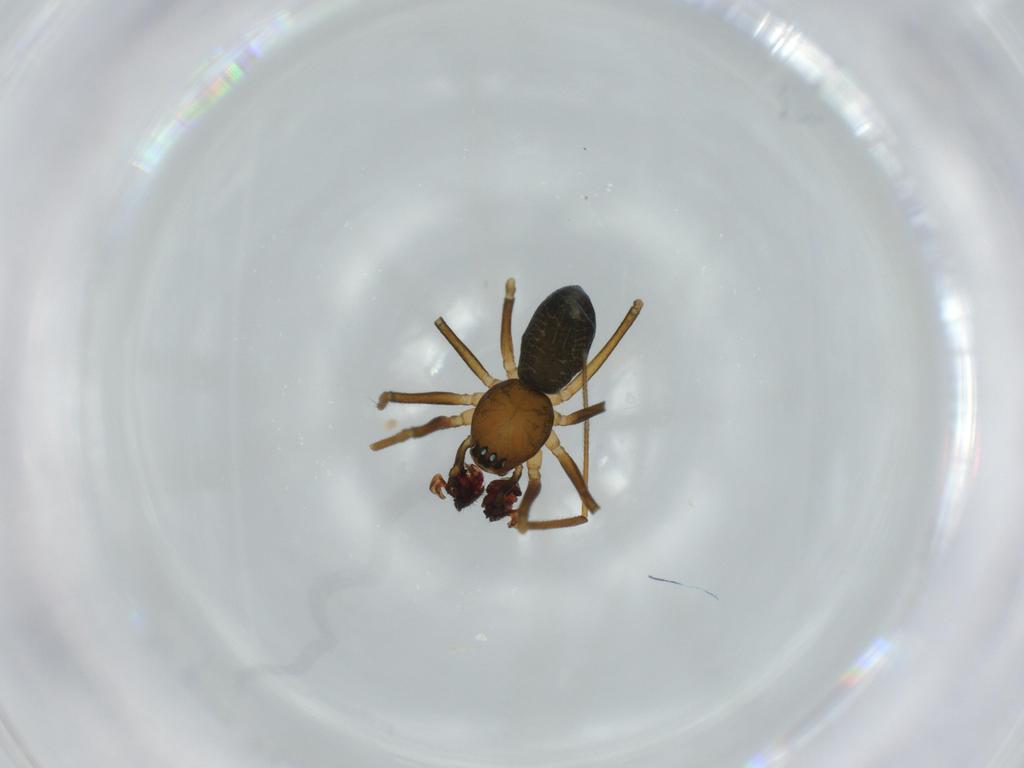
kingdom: Animalia
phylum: Arthropoda
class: Arachnida
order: Araneae
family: Linyphiidae
